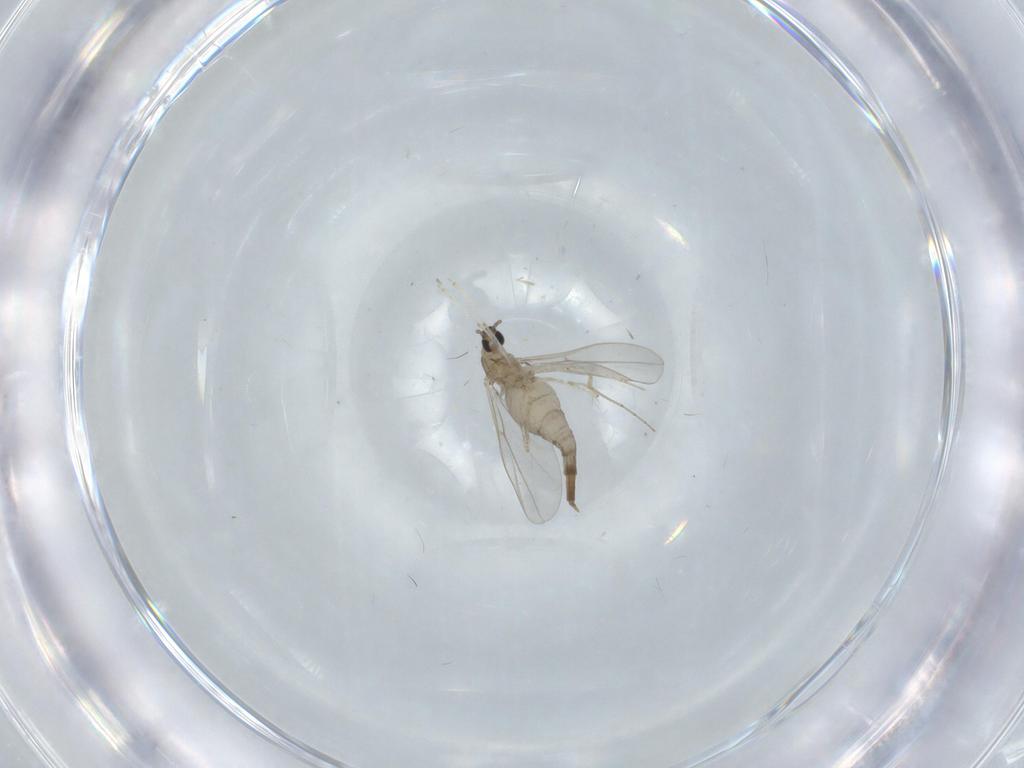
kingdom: Animalia
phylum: Arthropoda
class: Insecta
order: Diptera
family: Cecidomyiidae
